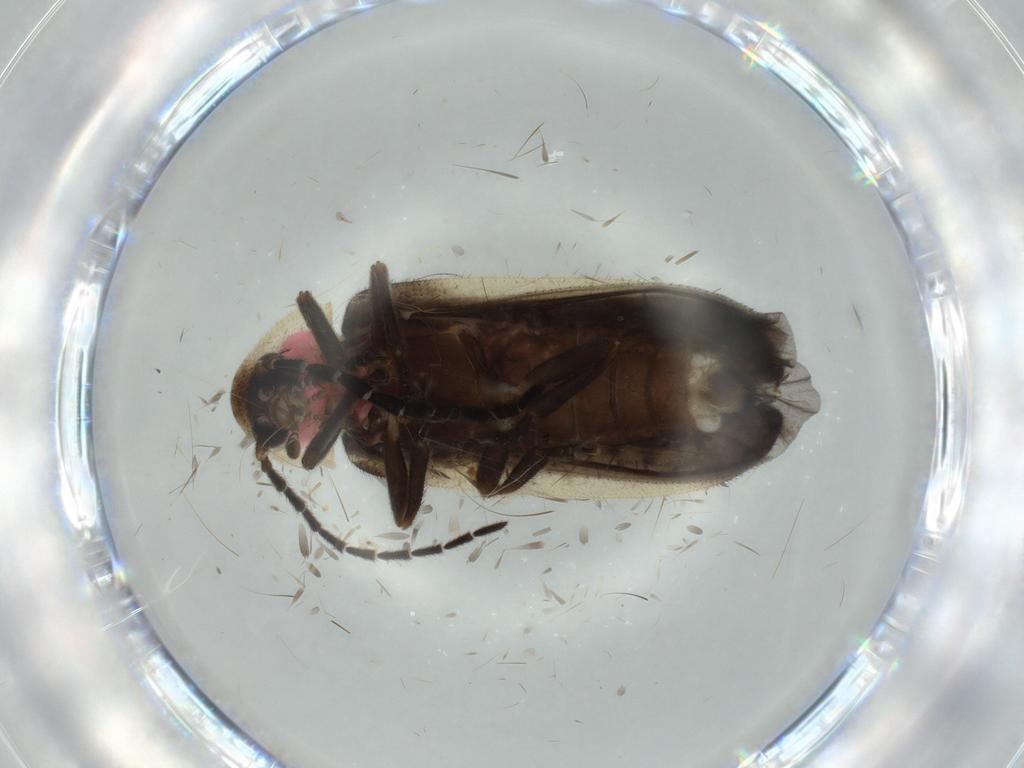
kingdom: Animalia
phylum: Arthropoda
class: Insecta
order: Coleoptera
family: Lampyridae
